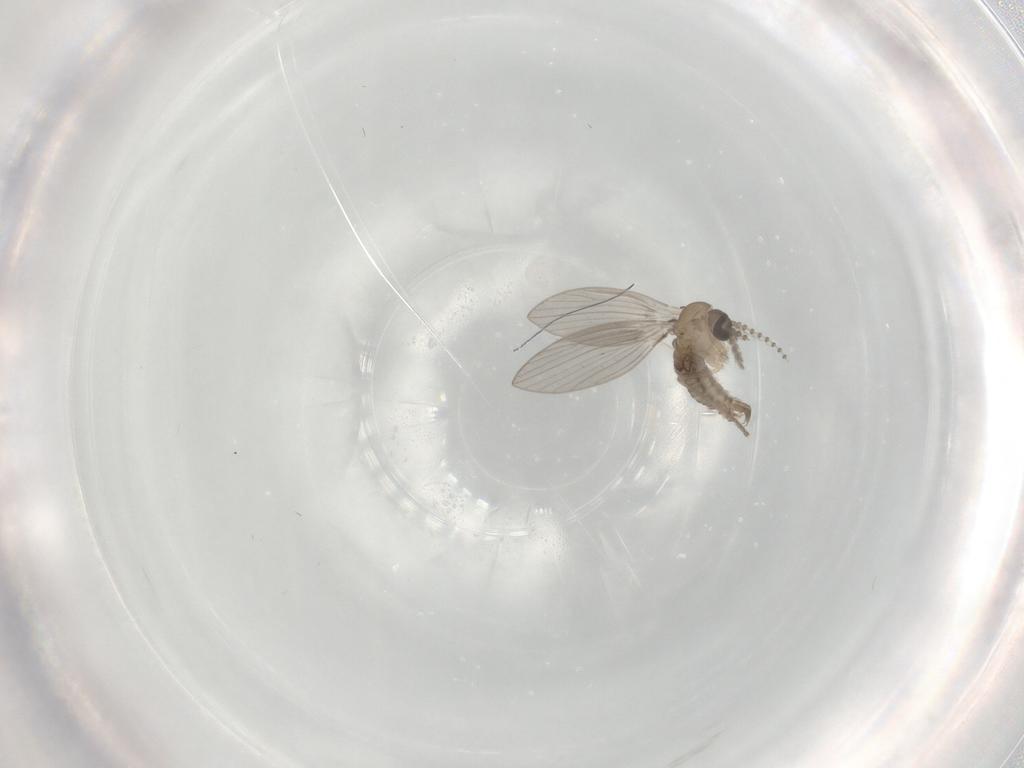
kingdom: Animalia
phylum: Arthropoda
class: Insecta
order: Diptera
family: Psychodidae
